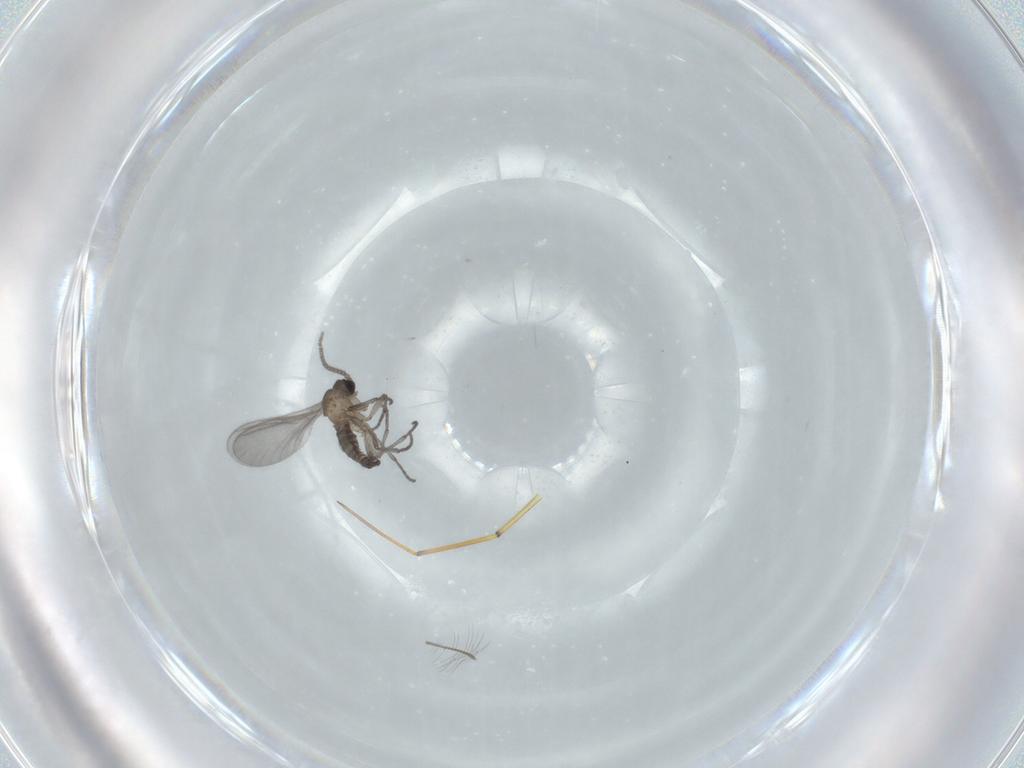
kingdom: Animalia
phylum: Arthropoda
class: Insecta
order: Diptera
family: Sciaridae
